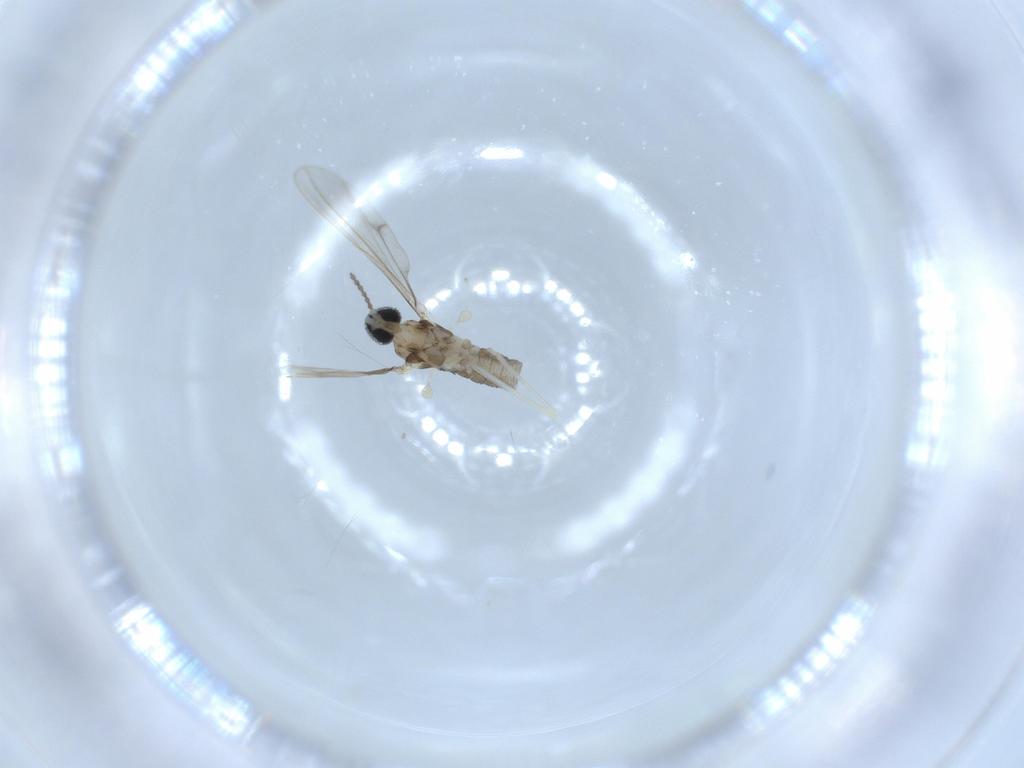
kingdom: Animalia
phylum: Arthropoda
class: Insecta
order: Diptera
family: Cecidomyiidae
